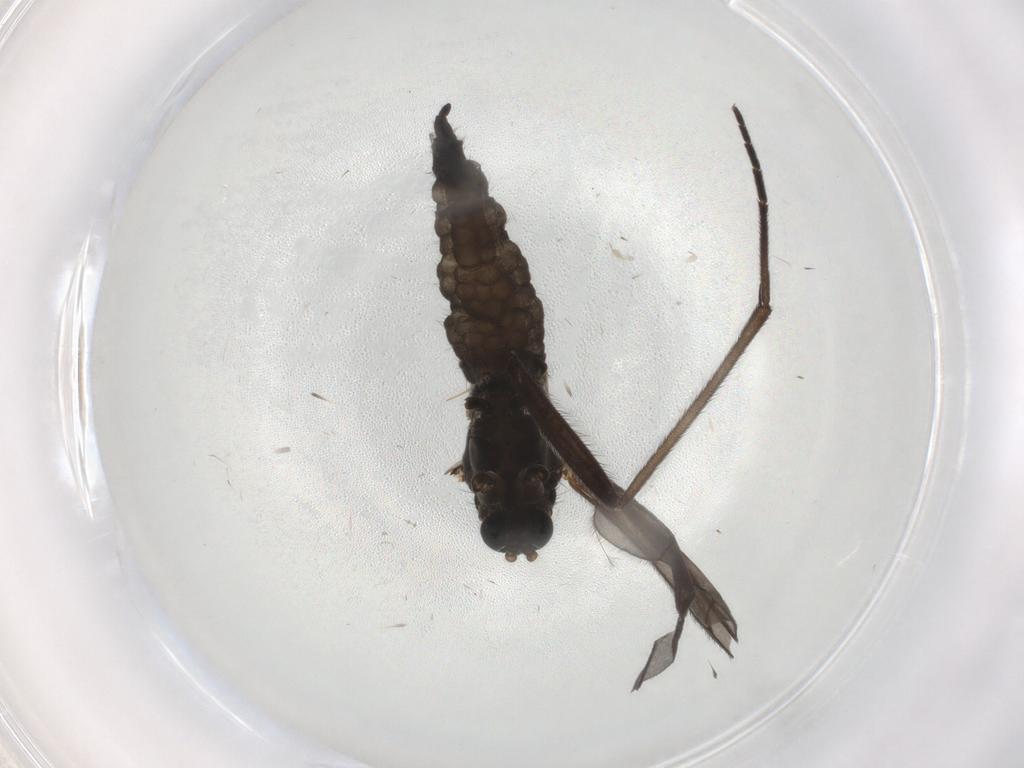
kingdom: Animalia
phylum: Arthropoda
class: Insecta
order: Diptera
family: Sciaridae
